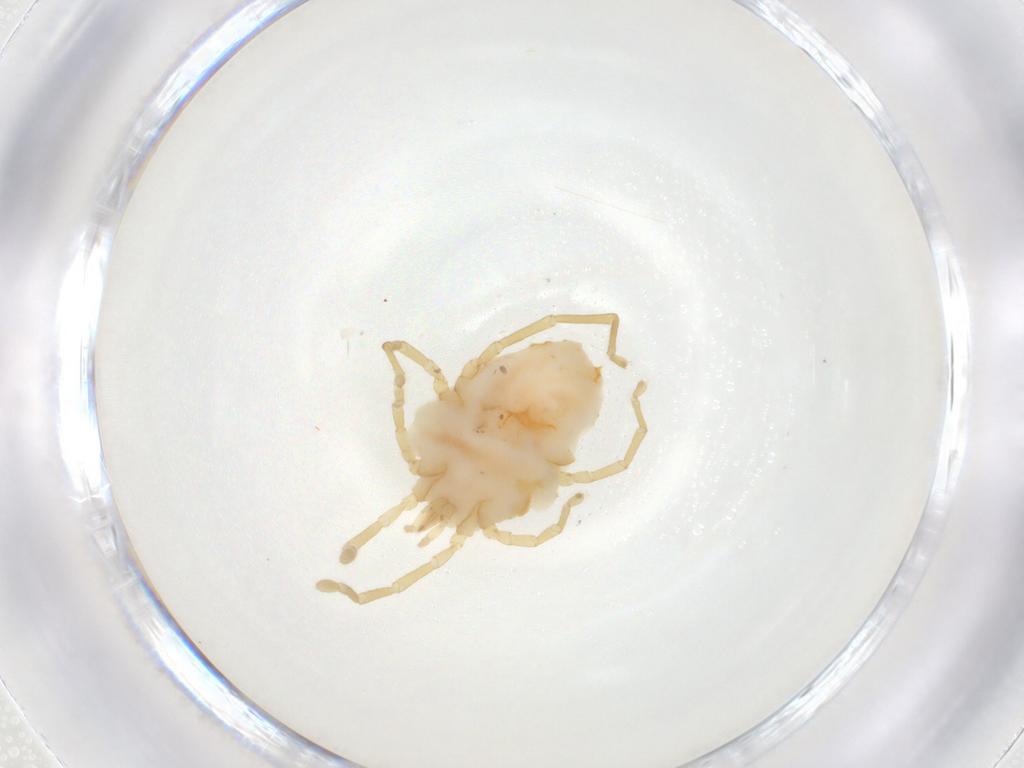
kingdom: Animalia
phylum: Arthropoda
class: Arachnida
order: Trombidiformes
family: Erythraeidae
